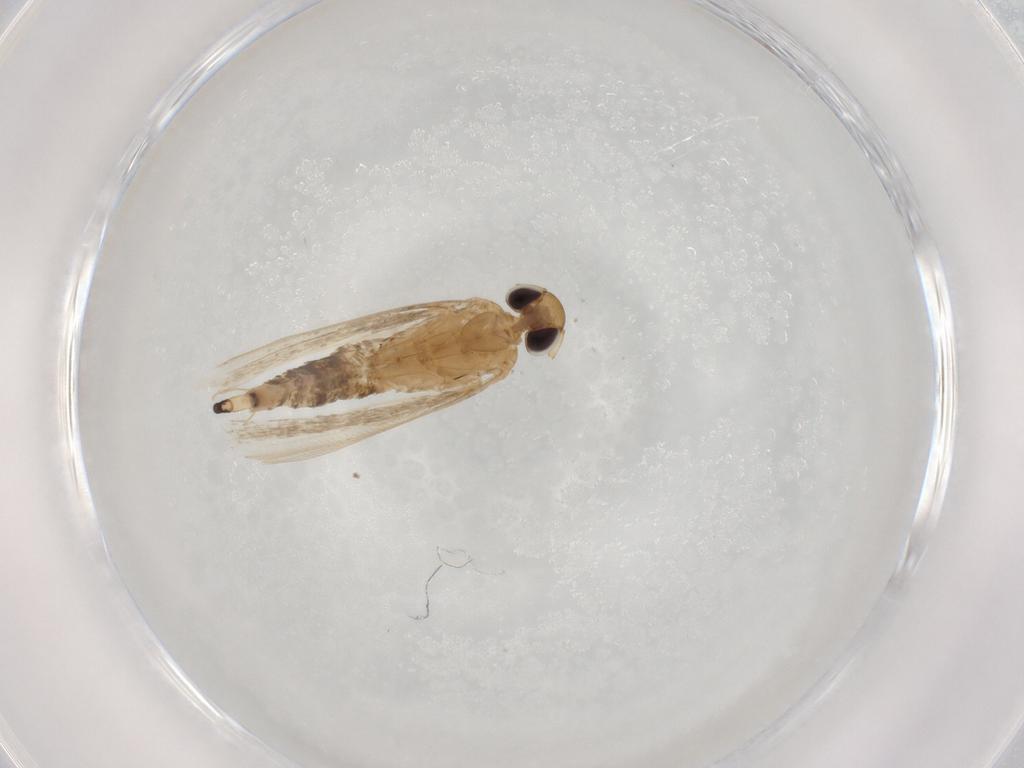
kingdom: Animalia
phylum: Arthropoda
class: Insecta
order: Lepidoptera
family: Gelechiidae
